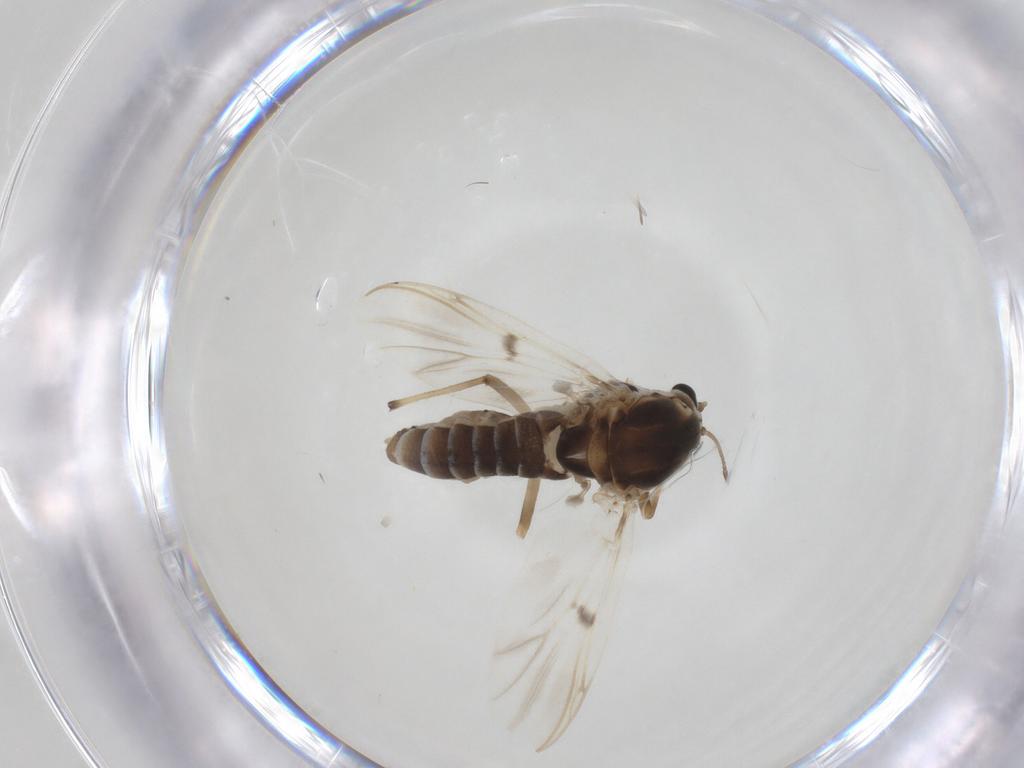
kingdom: Animalia
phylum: Arthropoda
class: Insecta
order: Diptera
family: Chironomidae
